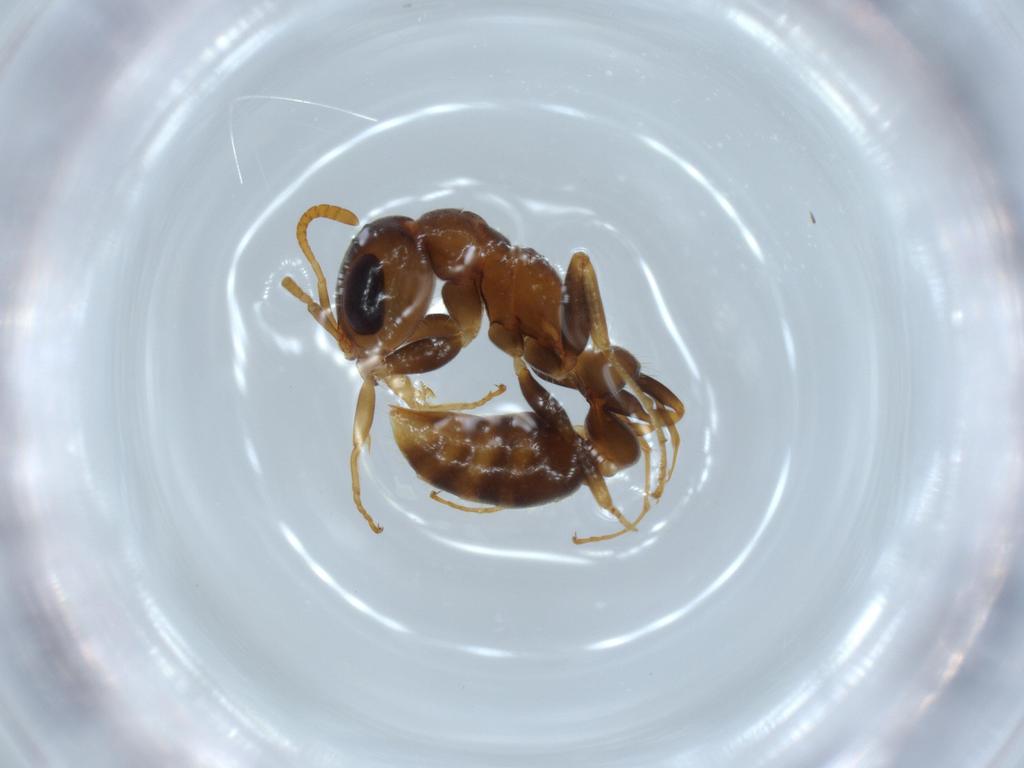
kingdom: Animalia
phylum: Arthropoda
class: Insecta
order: Hymenoptera
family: Formicidae
